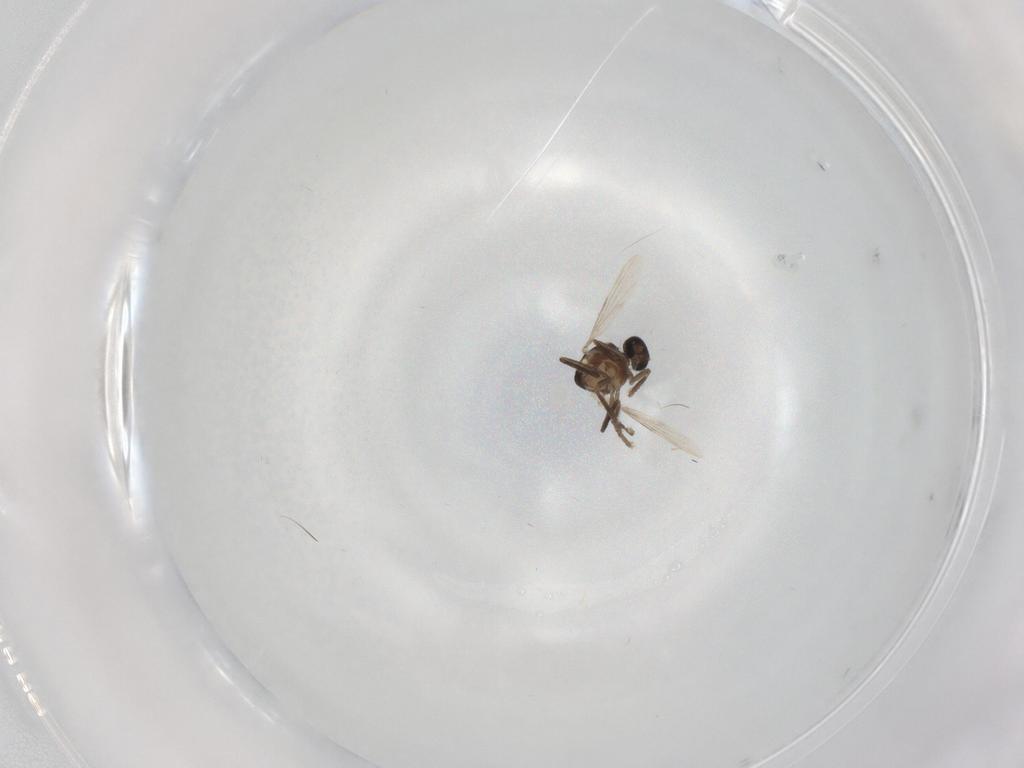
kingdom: Animalia
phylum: Arthropoda
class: Insecta
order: Diptera
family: Ceratopogonidae
